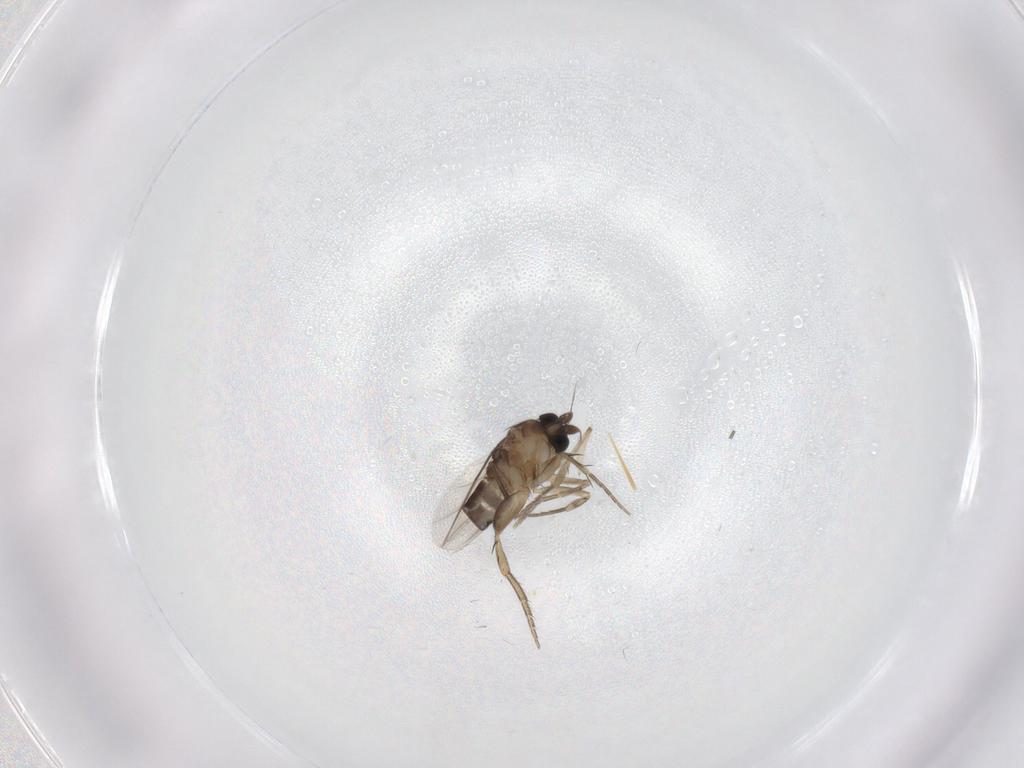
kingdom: Animalia
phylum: Arthropoda
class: Insecta
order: Diptera
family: Phoridae
